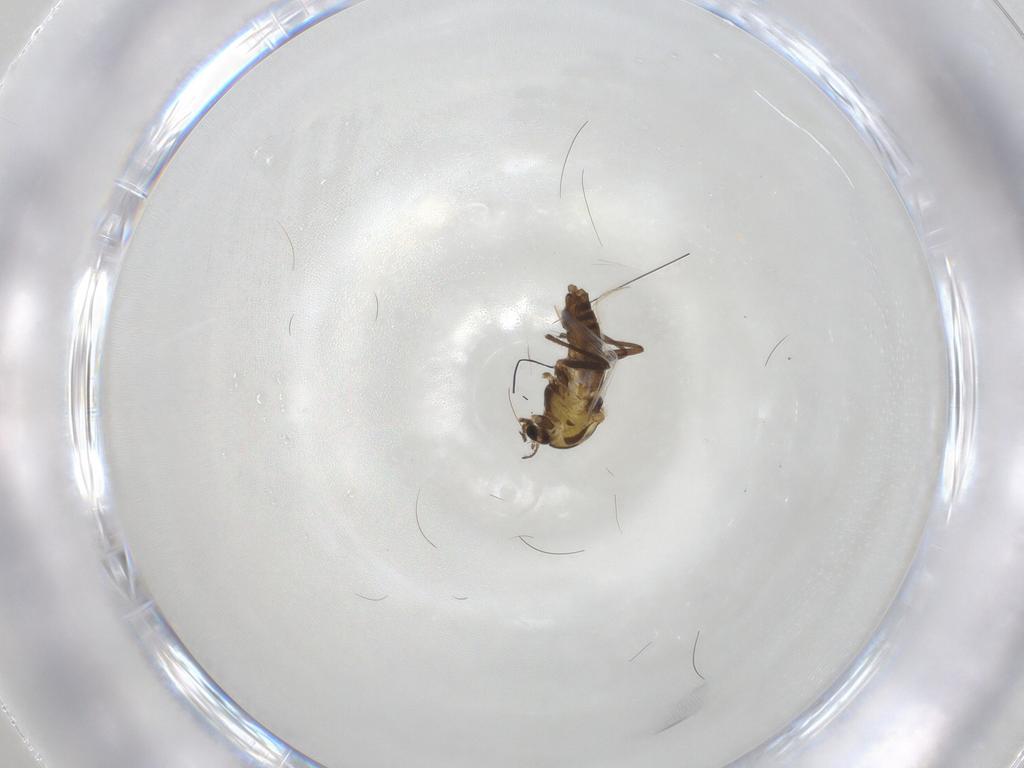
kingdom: Animalia
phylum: Arthropoda
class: Insecta
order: Diptera
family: Chironomidae
